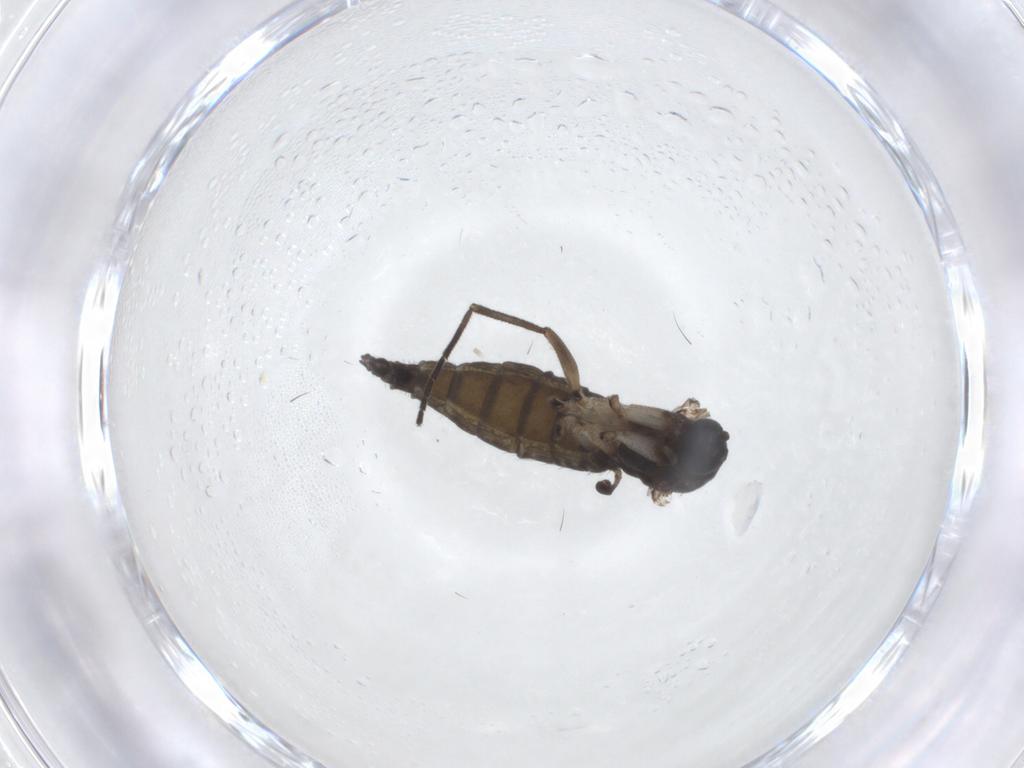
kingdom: Animalia
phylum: Arthropoda
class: Insecta
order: Diptera
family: Sciaridae
